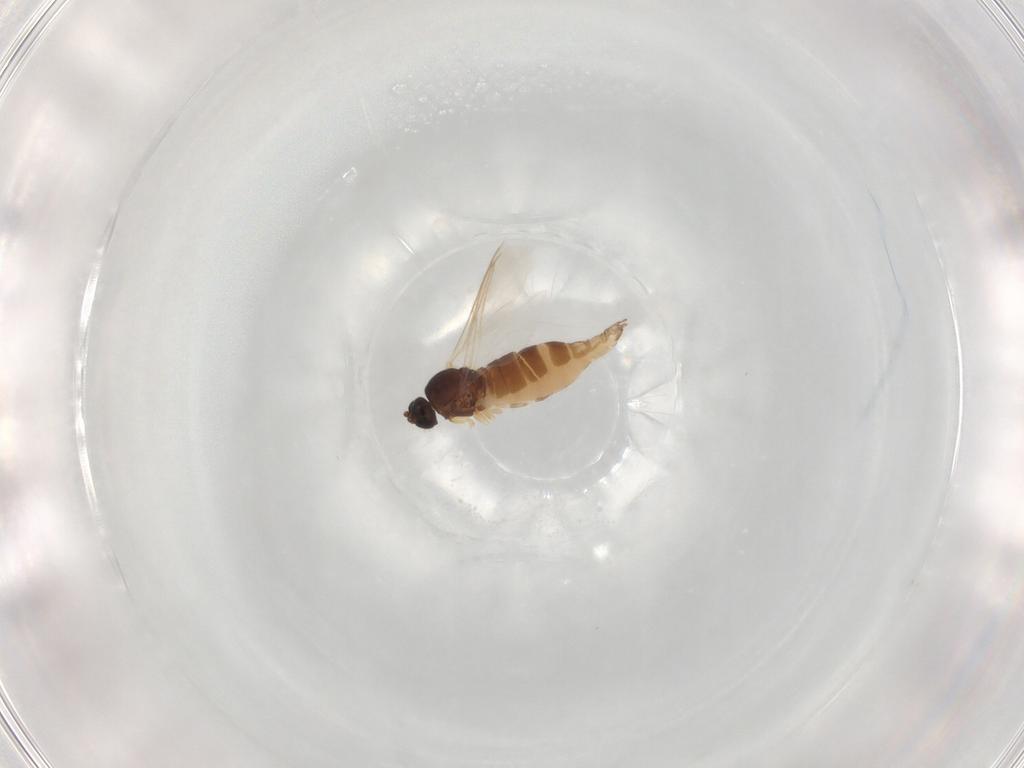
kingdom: Animalia
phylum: Arthropoda
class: Insecta
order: Diptera
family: Sciaridae
